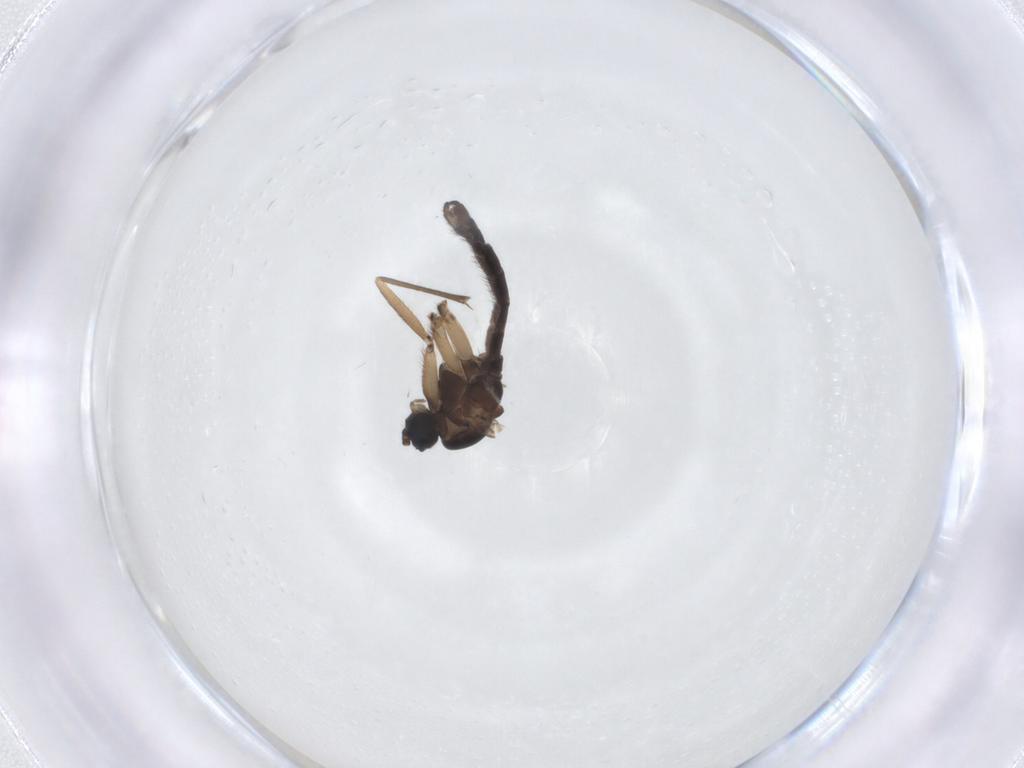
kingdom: Animalia
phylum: Arthropoda
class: Insecta
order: Diptera
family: Sciaridae
